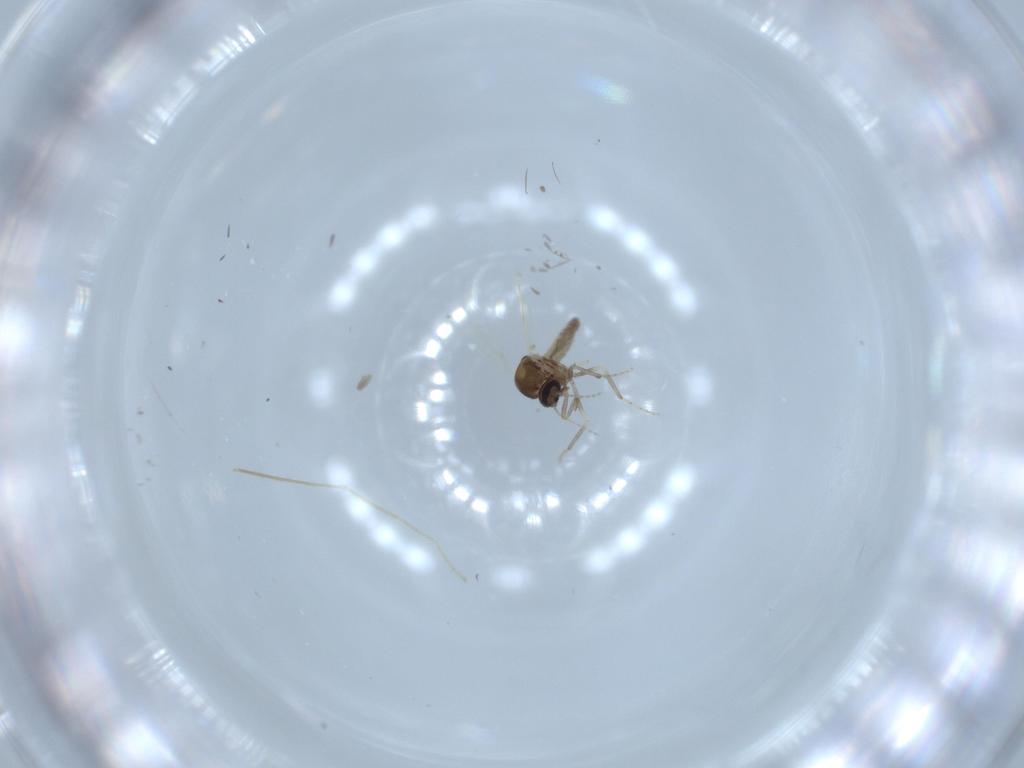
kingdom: Animalia
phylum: Arthropoda
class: Insecta
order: Diptera
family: Ceratopogonidae
